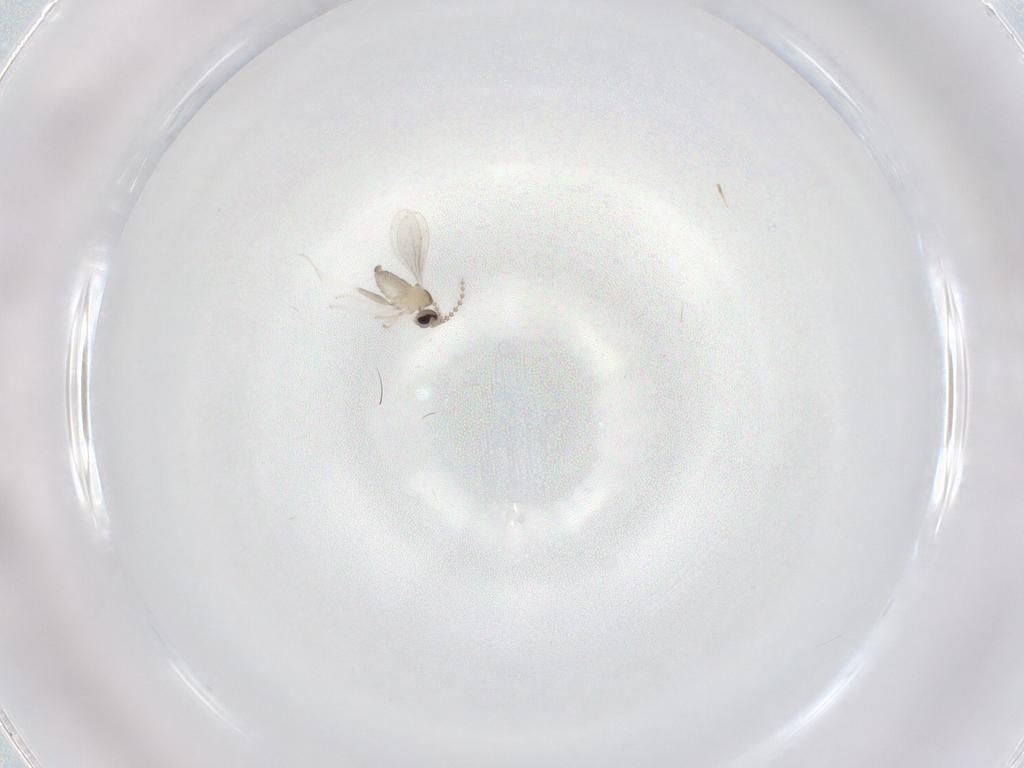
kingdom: Animalia
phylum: Arthropoda
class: Insecta
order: Diptera
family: Cecidomyiidae
